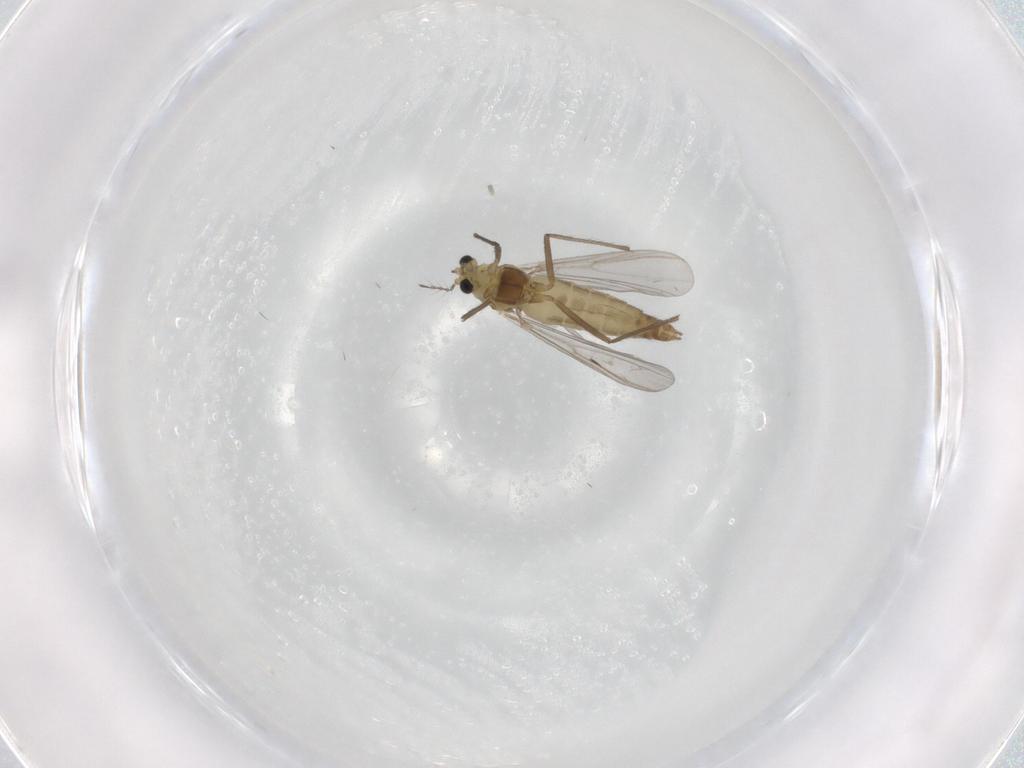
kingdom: Animalia
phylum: Arthropoda
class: Insecta
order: Diptera
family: Chironomidae
